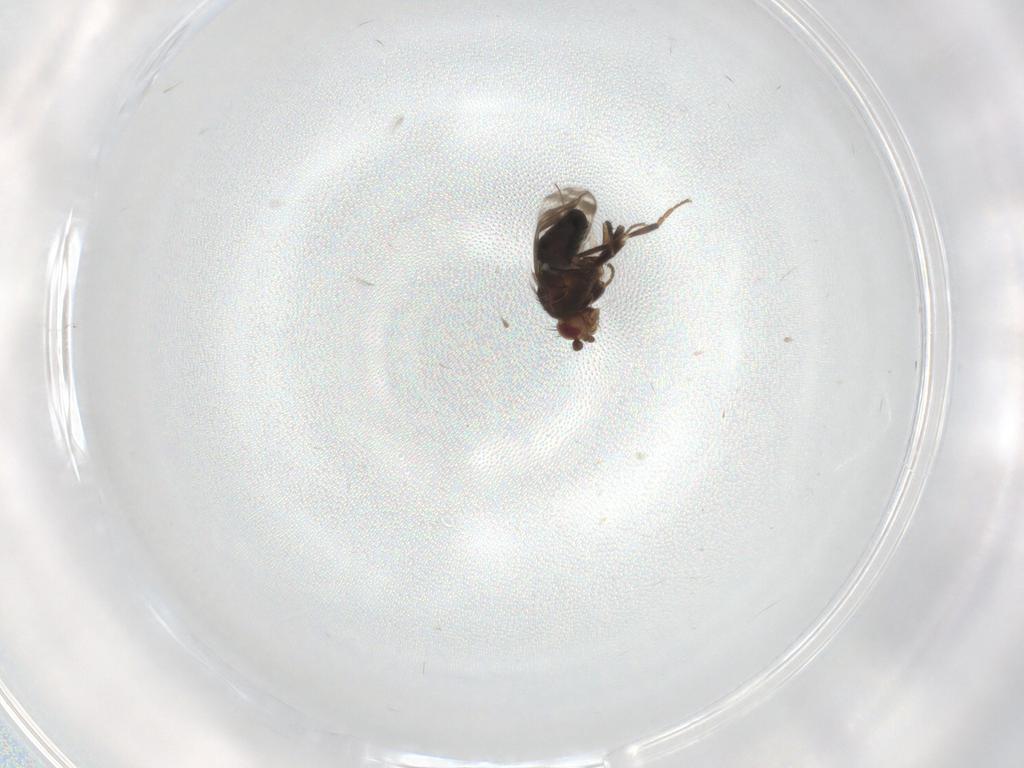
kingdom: Animalia
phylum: Arthropoda
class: Insecta
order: Diptera
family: Sphaeroceridae
